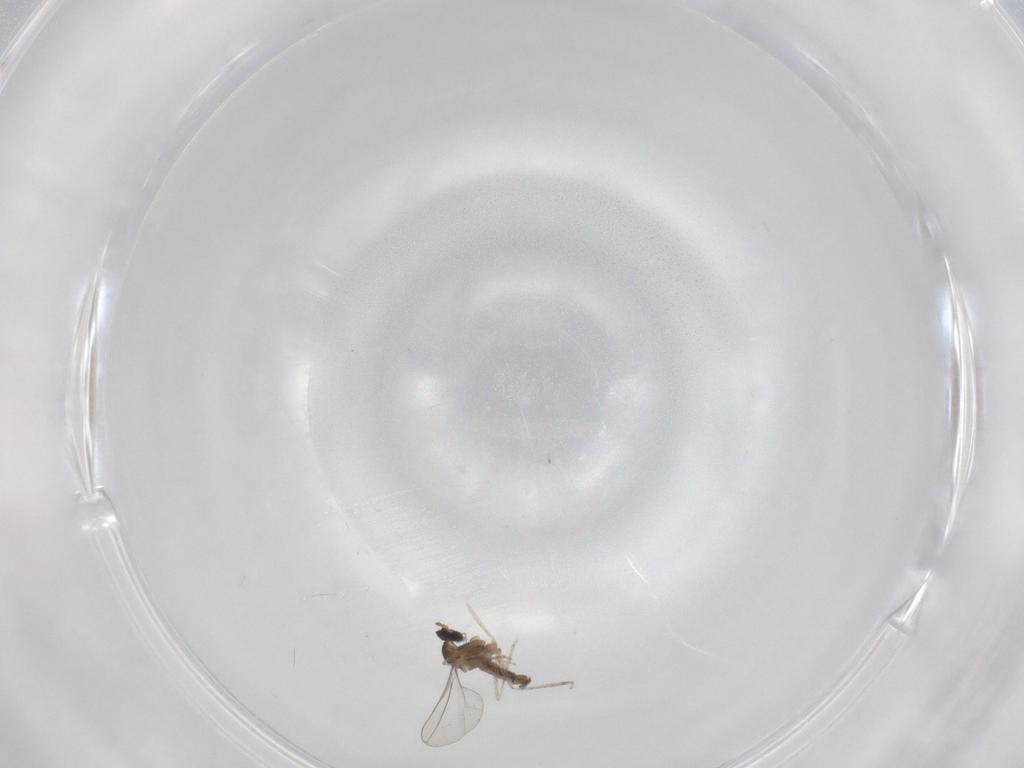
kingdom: Animalia
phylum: Arthropoda
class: Insecta
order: Diptera
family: Cecidomyiidae
